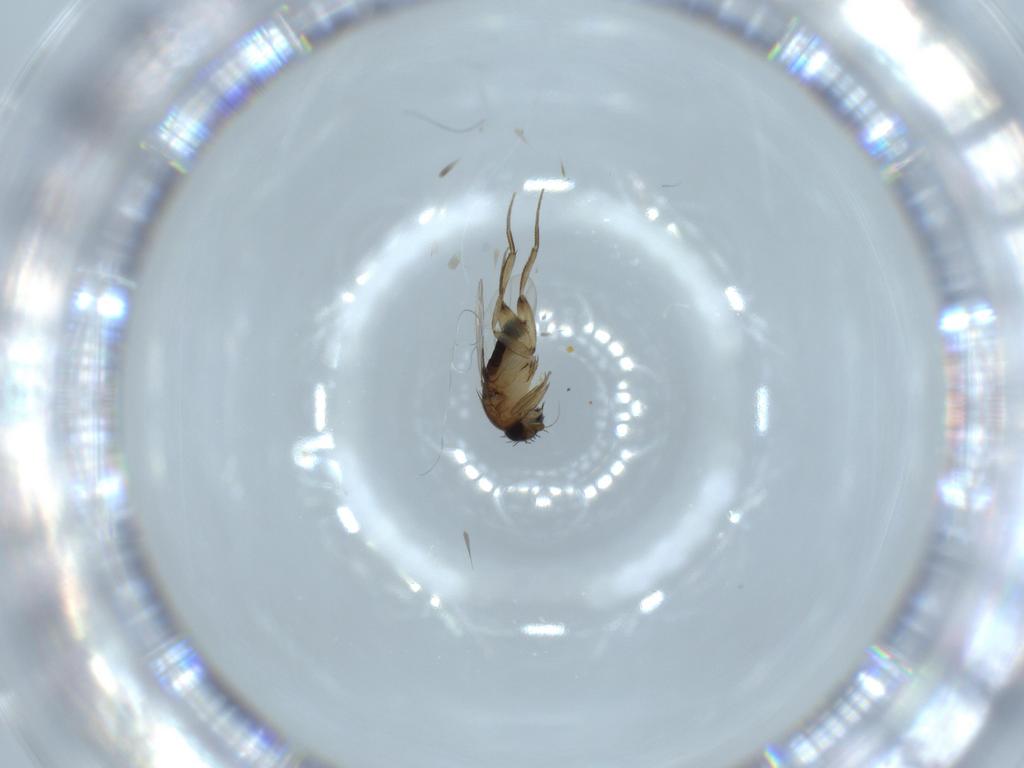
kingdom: Animalia
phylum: Arthropoda
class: Insecta
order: Diptera
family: Phoridae
